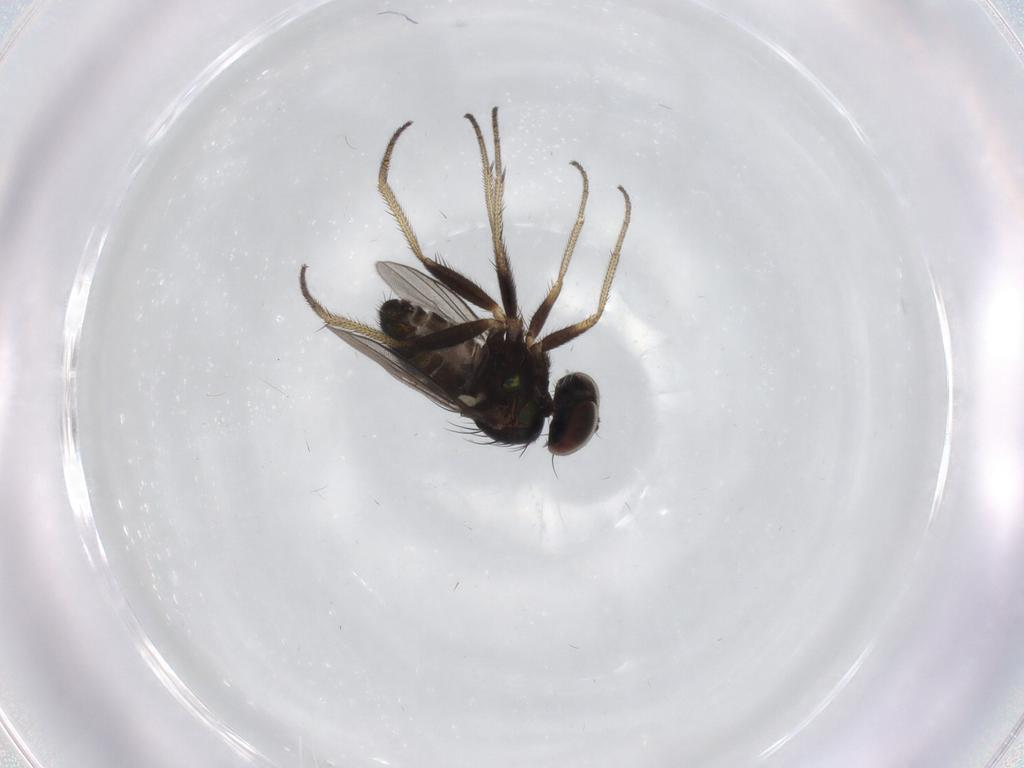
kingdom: Animalia
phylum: Arthropoda
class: Insecta
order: Diptera
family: Dolichopodidae
